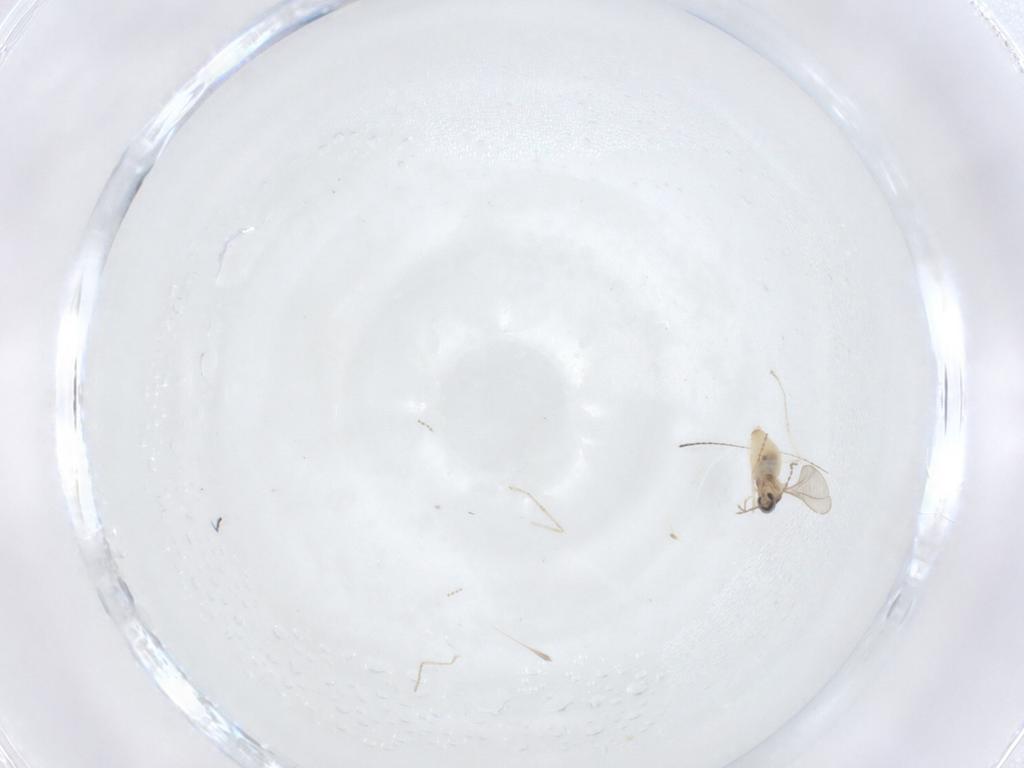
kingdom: Animalia
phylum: Arthropoda
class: Insecta
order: Diptera
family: Cecidomyiidae
